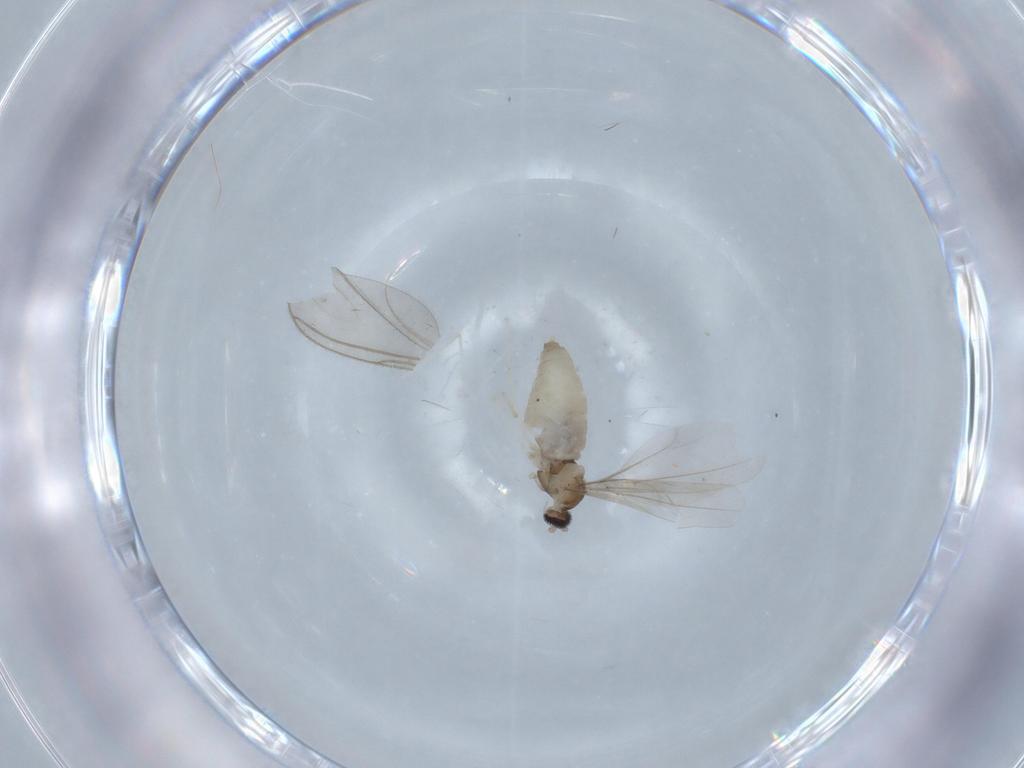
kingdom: Animalia
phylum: Arthropoda
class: Insecta
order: Diptera
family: Cecidomyiidae
